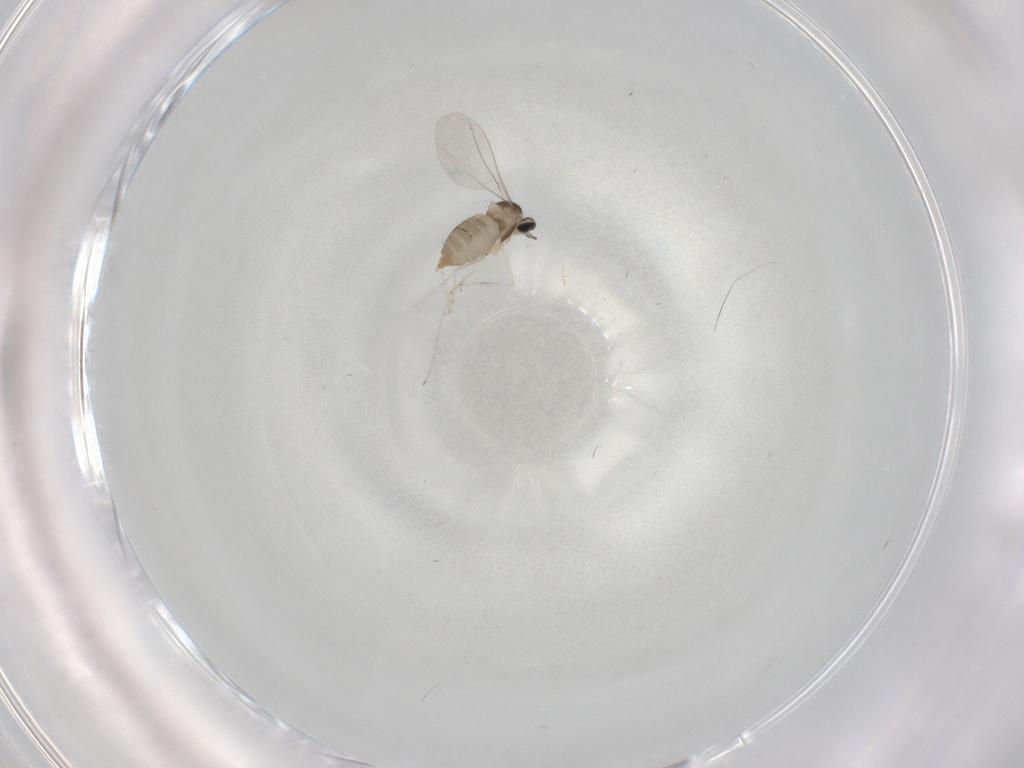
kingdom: Animalia
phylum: Arthropoda
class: Insecta
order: Diptera
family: Cecidomyiidae
